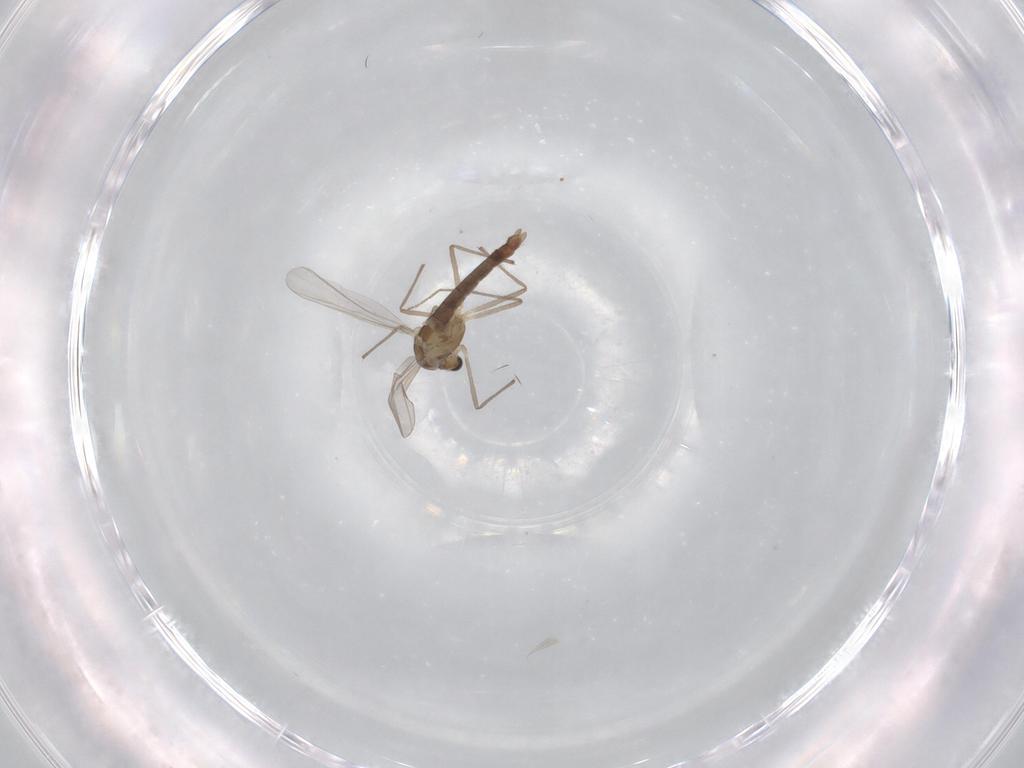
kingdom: Animalia
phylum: Arthropoda
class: Insecta
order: Diptera
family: Chironomidae
